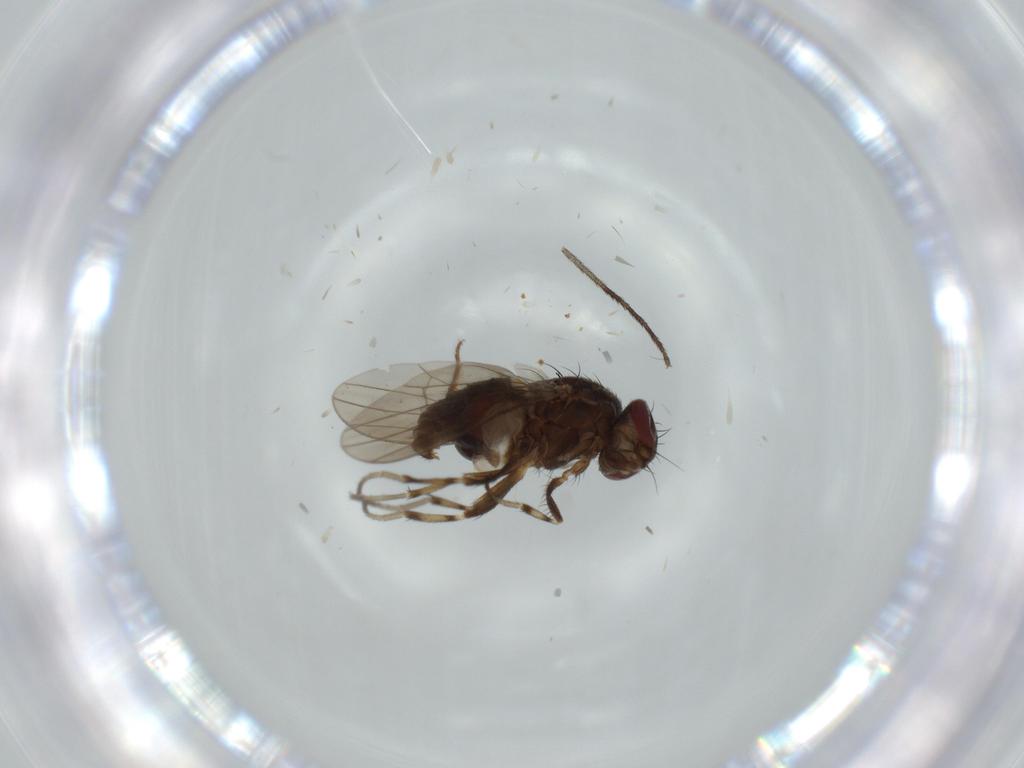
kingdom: Animalia
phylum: Arthropoda
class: Insecta
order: Diptera
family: Heleomyzidae
